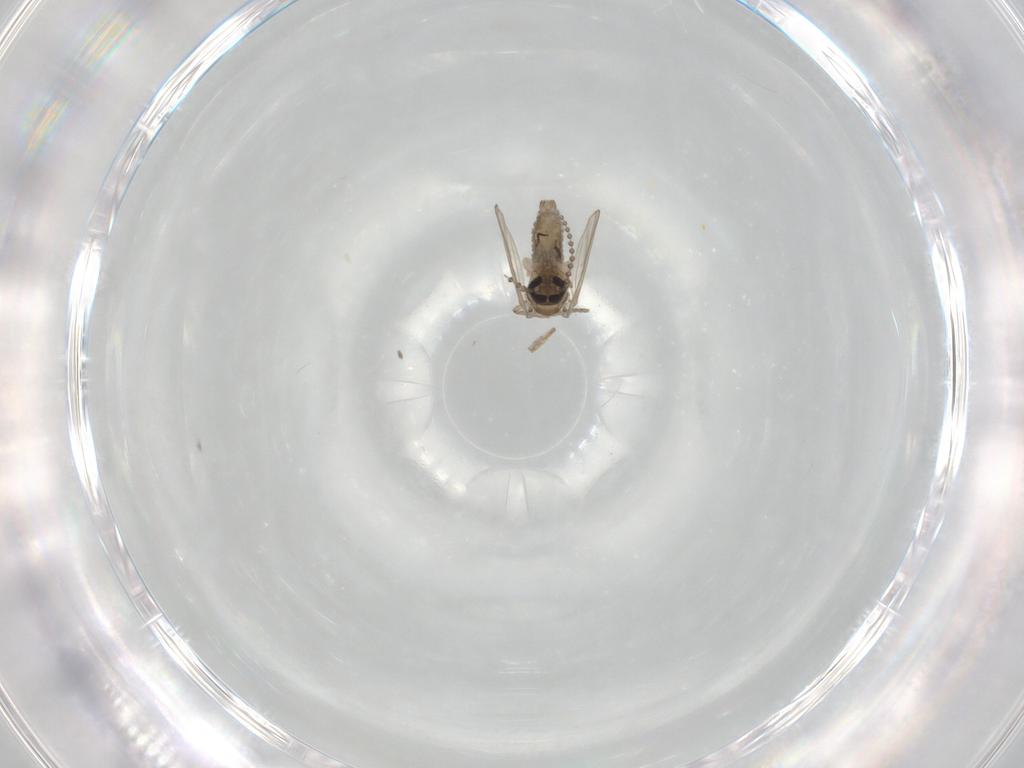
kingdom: Animalia
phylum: Arthropoda
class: Insecta
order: Diptera
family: Psychodidae
